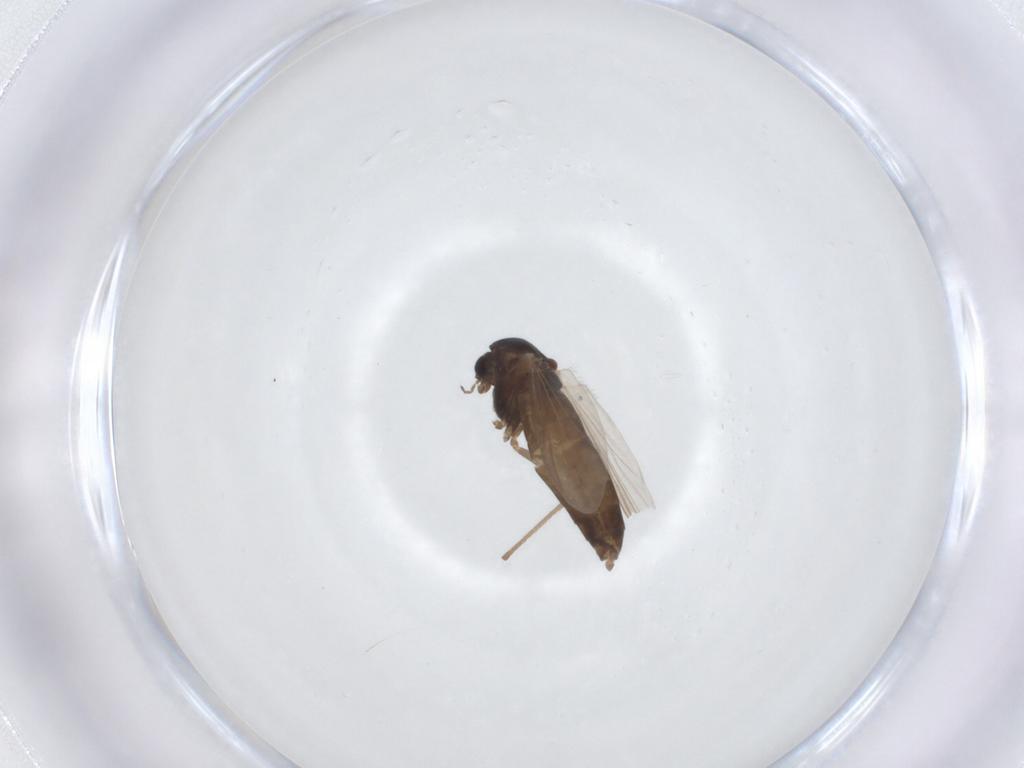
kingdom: Animalia
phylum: Arthropoda
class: Insecta
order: Diptera
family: Chironomidae
